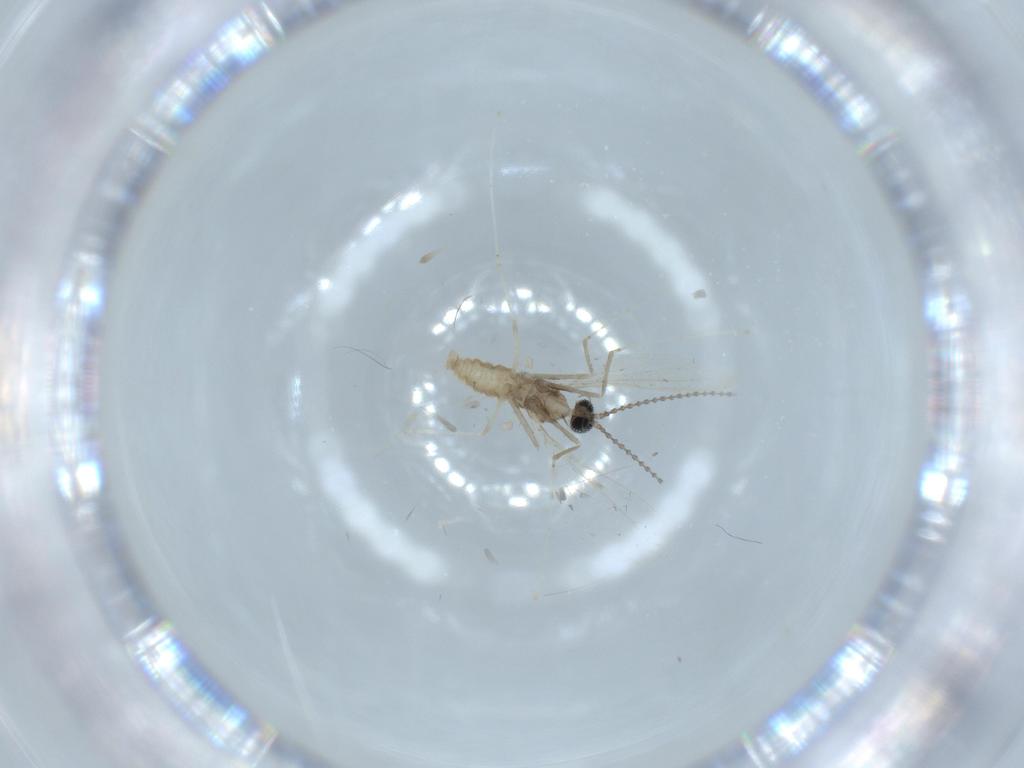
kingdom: Animalia
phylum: Arthropoda
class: Insecta
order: Diptera
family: Cecidomyiidae
